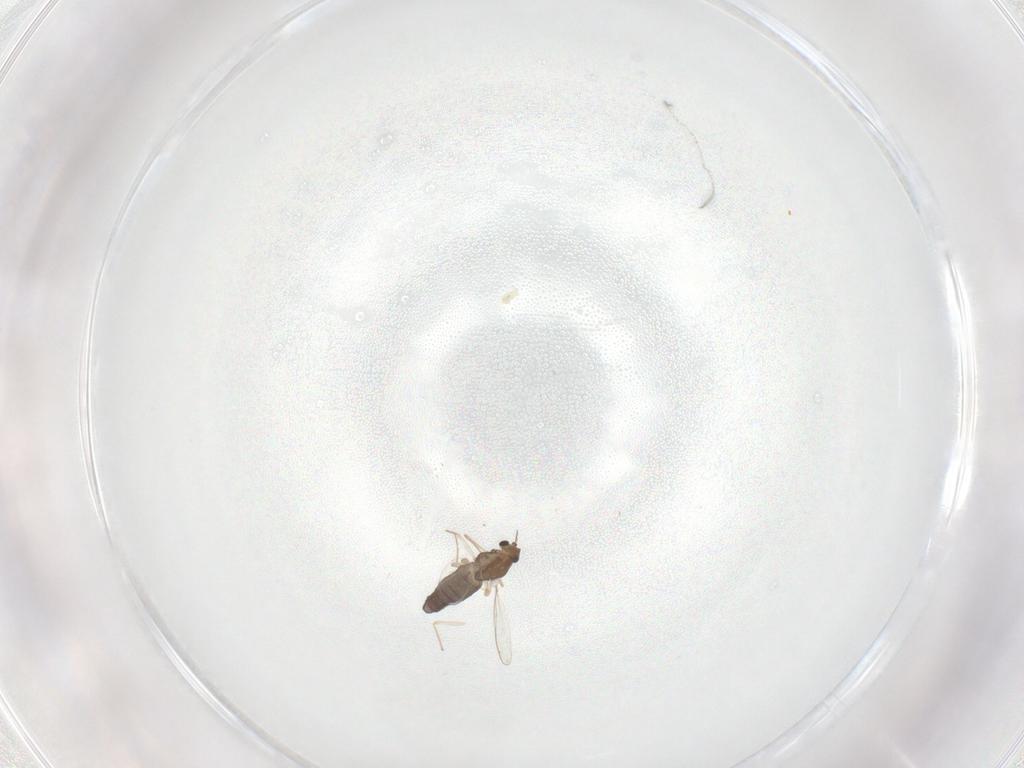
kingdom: Animalia
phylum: Arthropoda
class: Insecta
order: Diptera
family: Chironomidae
